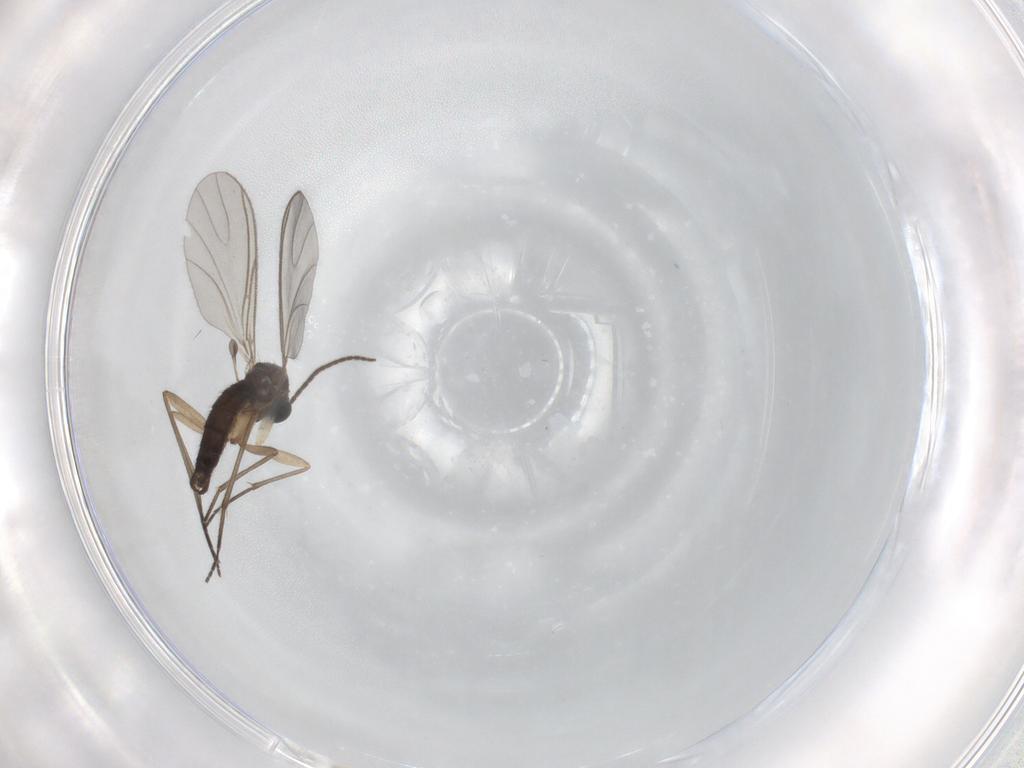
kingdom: Animalia
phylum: Arthropoda
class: Insecta
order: Diptera
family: Sciaridae
